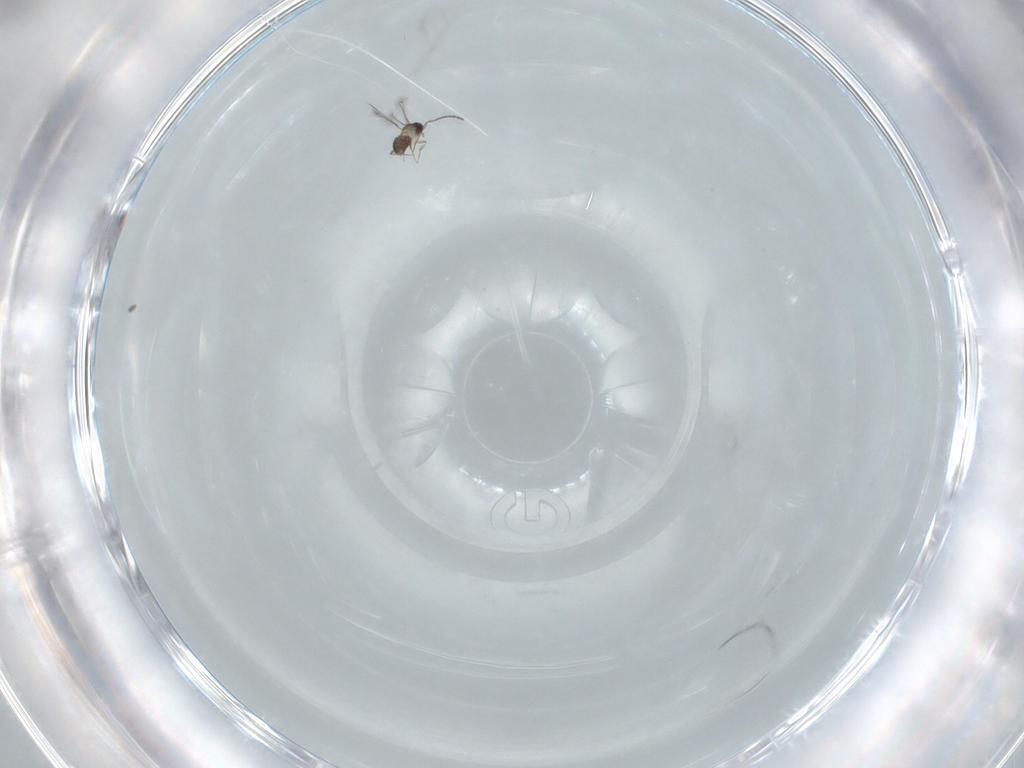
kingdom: Animalia
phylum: Arthropoda
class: Insecta
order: Hymenoptera
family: Mymaridae
